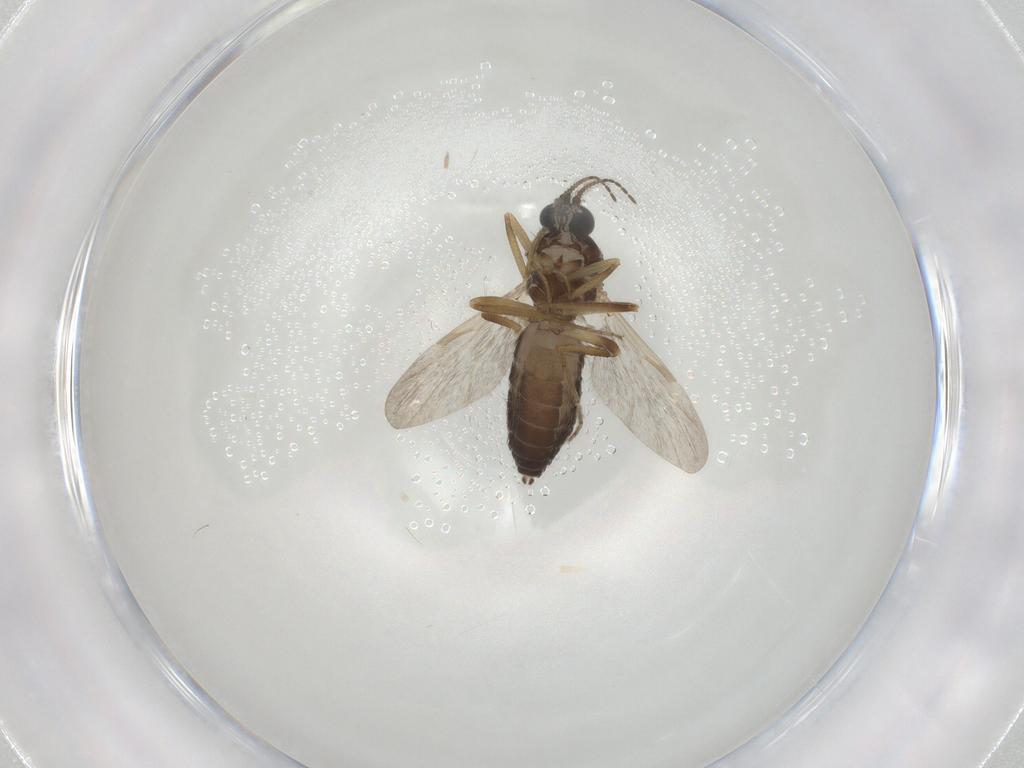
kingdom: Animalia
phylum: Arthropoda
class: Insecta
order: Diptera
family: Ceratopogonidae
